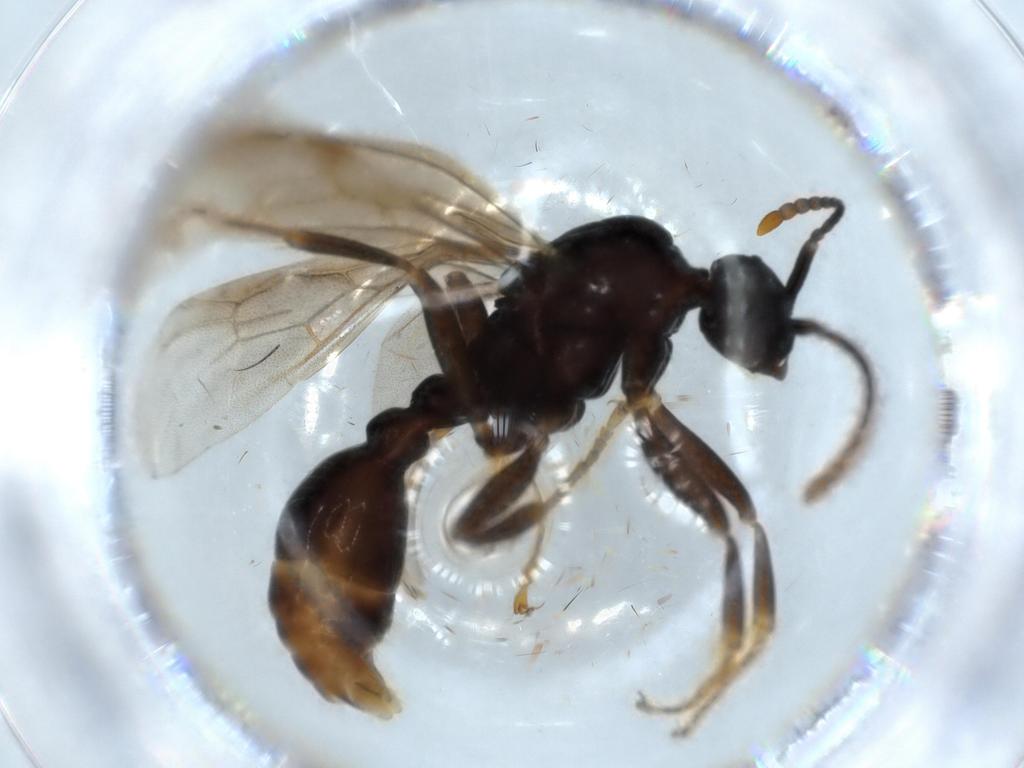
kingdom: Animalia
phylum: Arthropoda
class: Insecta
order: Hymenoptera
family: Formicidae
